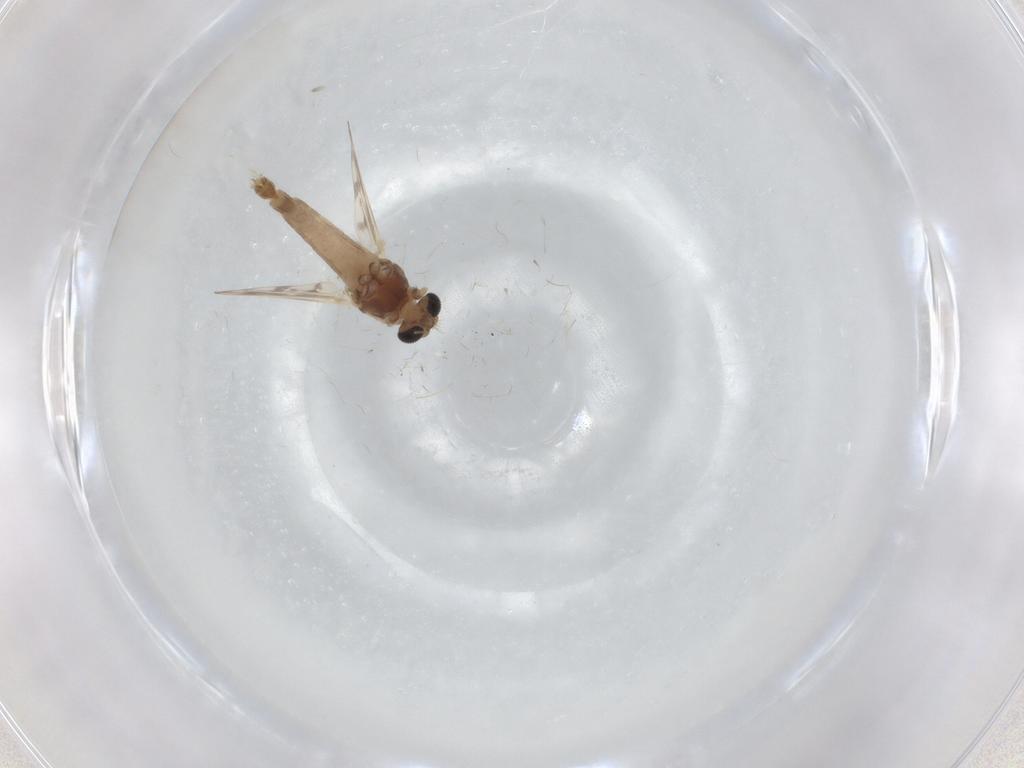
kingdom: Animalia
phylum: Arthropoda
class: Insecta
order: Diptera
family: Chironomidae
